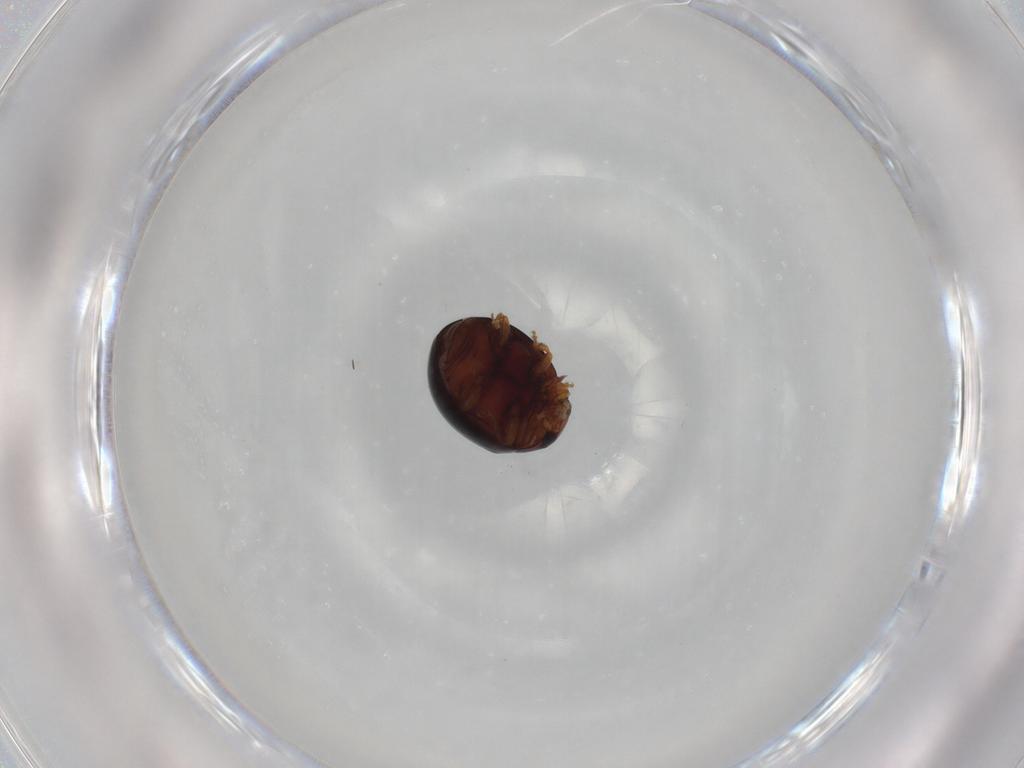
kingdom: Animalia
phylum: Arthropoda
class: Insecta
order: Coleoptera
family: Coccinellidae
